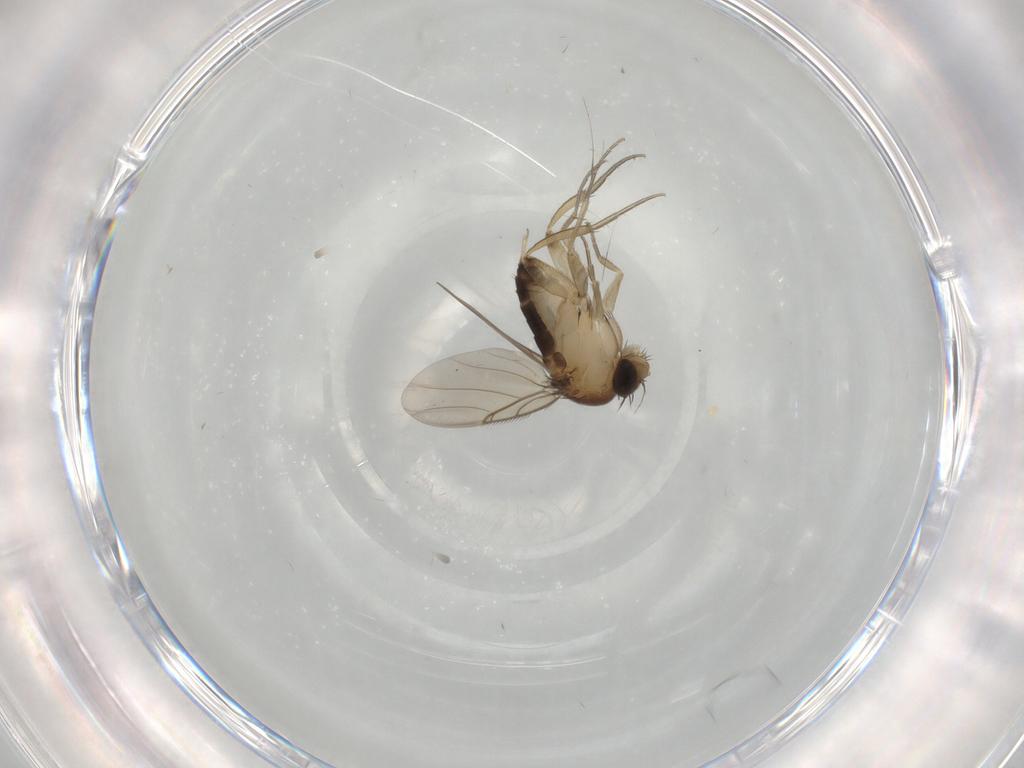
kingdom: Animalia
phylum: Arthropoda
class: Insecta
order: Diptera
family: Phoridae
